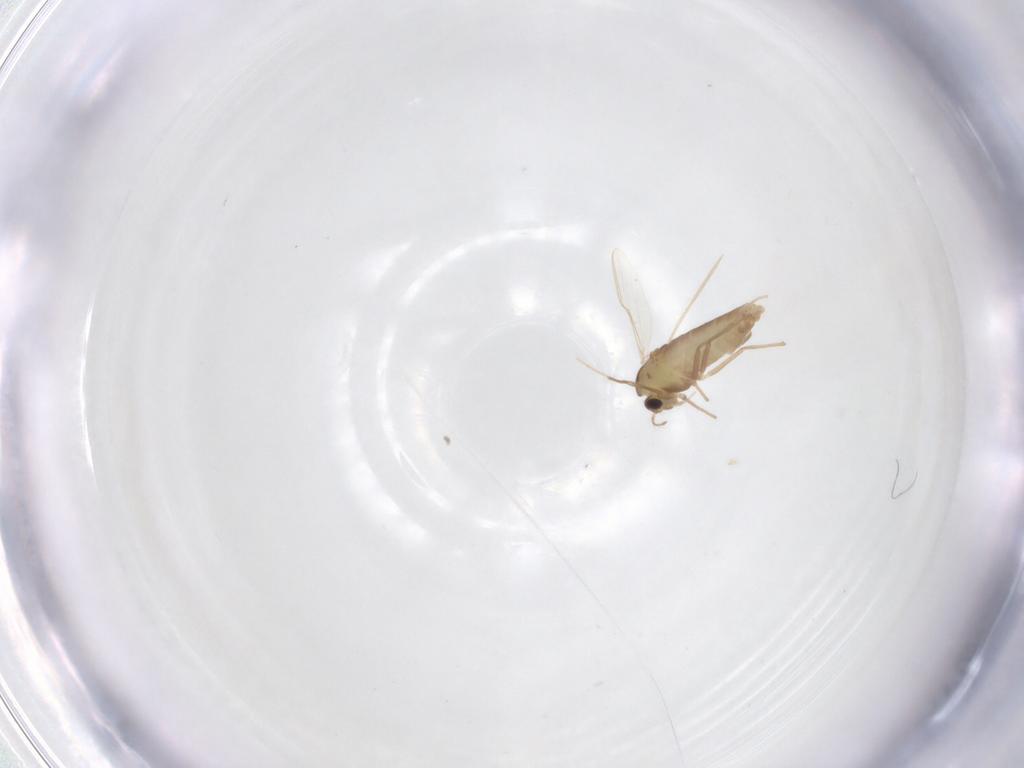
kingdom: Animalia
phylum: Arthropoda
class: Insecta
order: Diptera
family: Chironomidae
